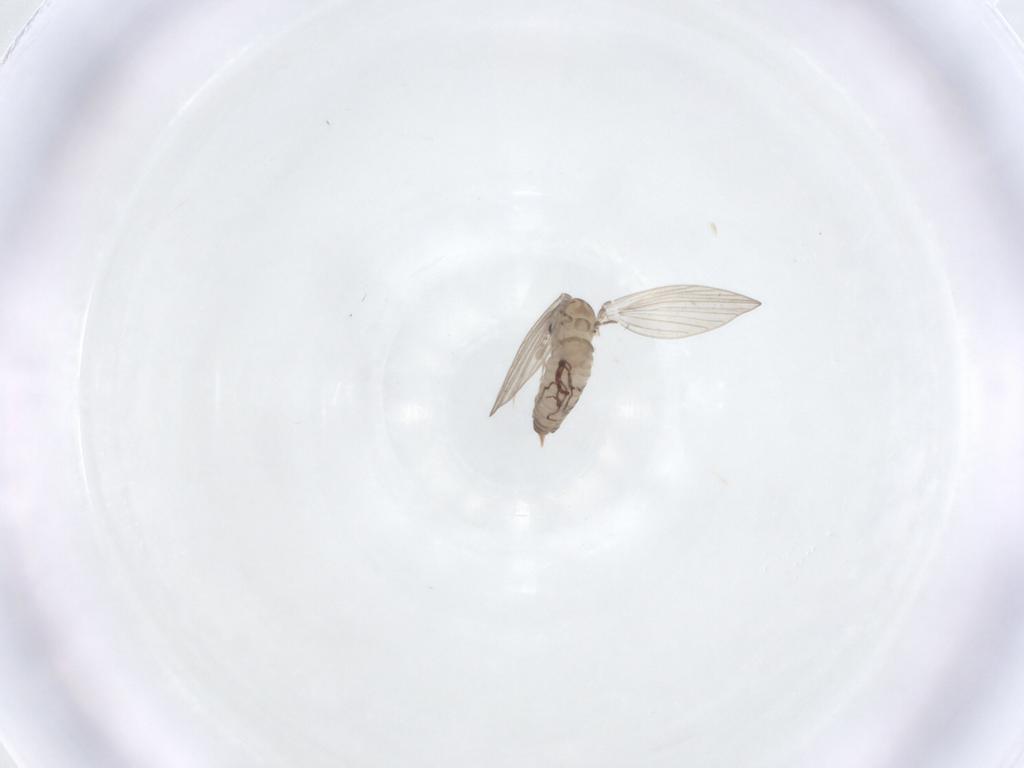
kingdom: Animalia
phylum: Arthropoda
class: Insecta
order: Diptera
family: Psychodidae
